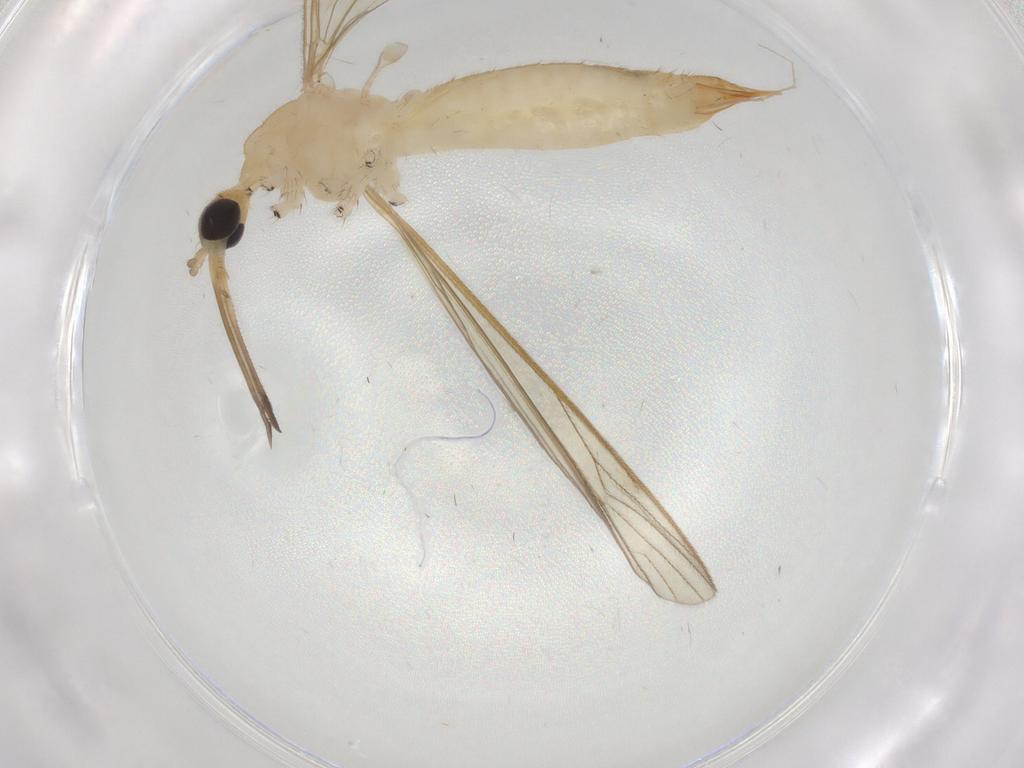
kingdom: Animalia
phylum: Arthropoda
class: Insecta
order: Diptera
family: Limoniidae
